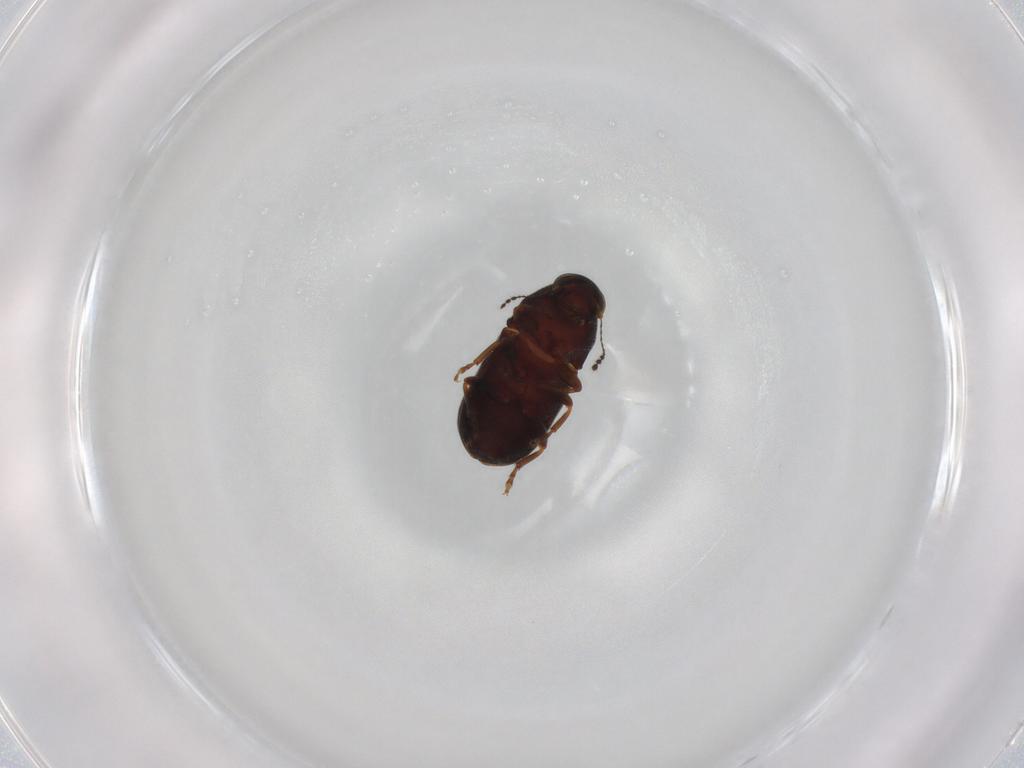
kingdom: Animalia
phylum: Arthropoda
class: Insecta
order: Coleoptera
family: Anthribidae
